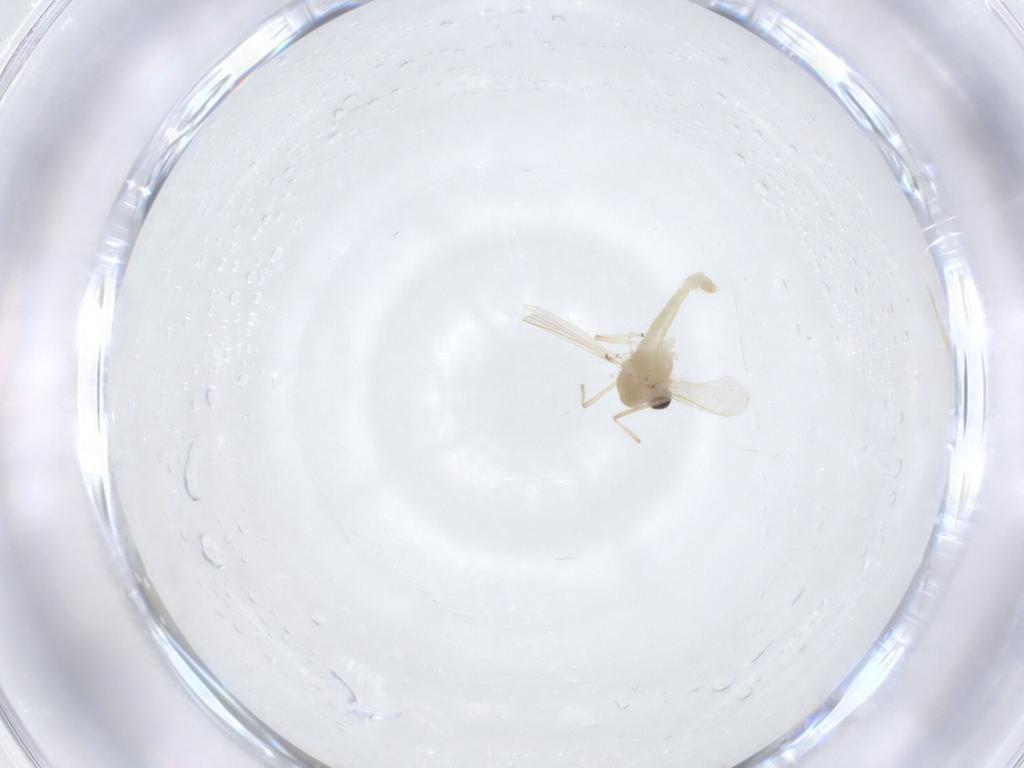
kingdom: Animalia
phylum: Arthropoda
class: Insecta
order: Diptera
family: Chironomidae
